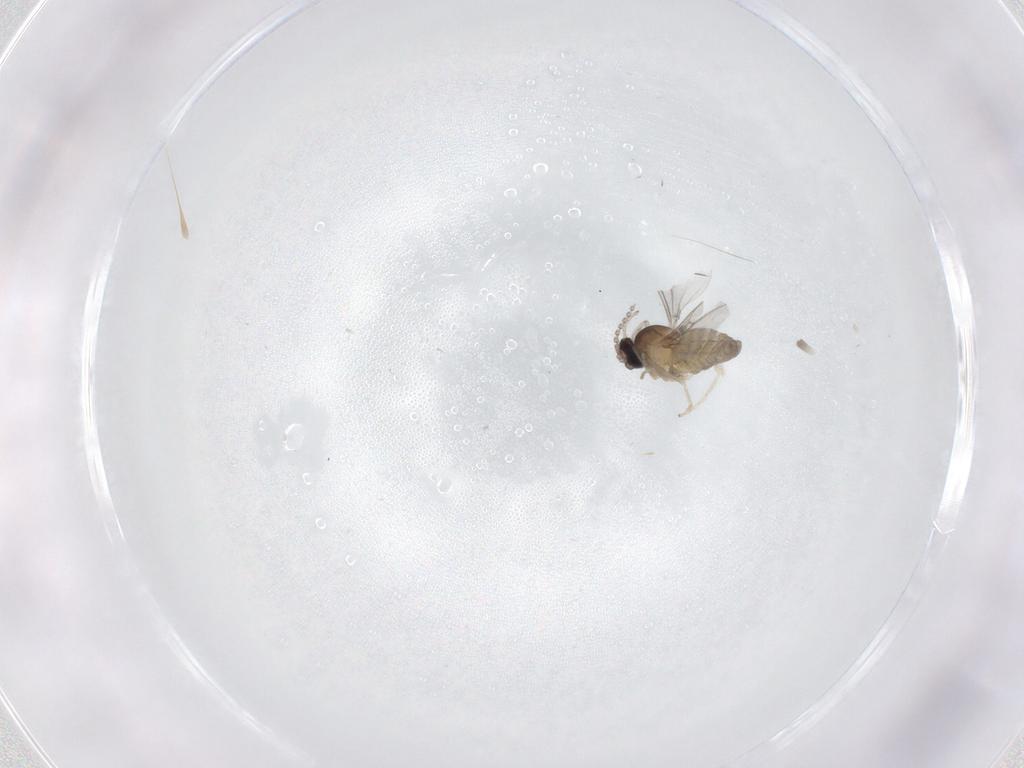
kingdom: Animalia
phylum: Arthropoda
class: Insecta
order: Diptera
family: Cecidomyiidae
